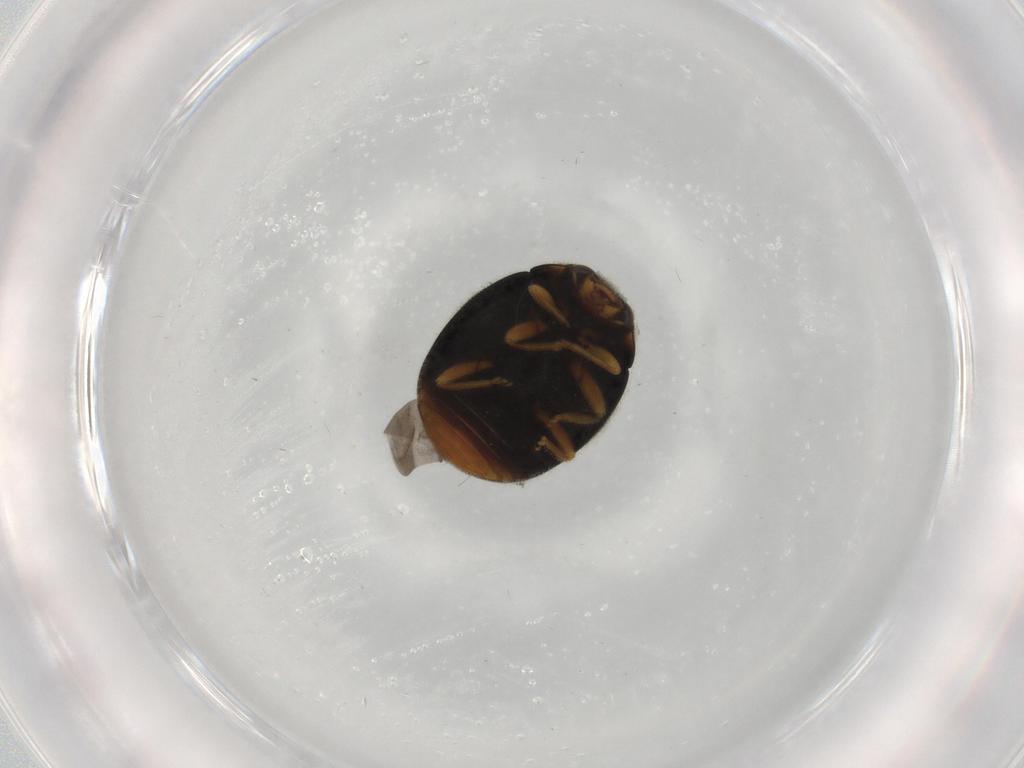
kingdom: Animalia
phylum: Arthropoda
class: Insecta
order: Coleoptera
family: Coccinellidae
